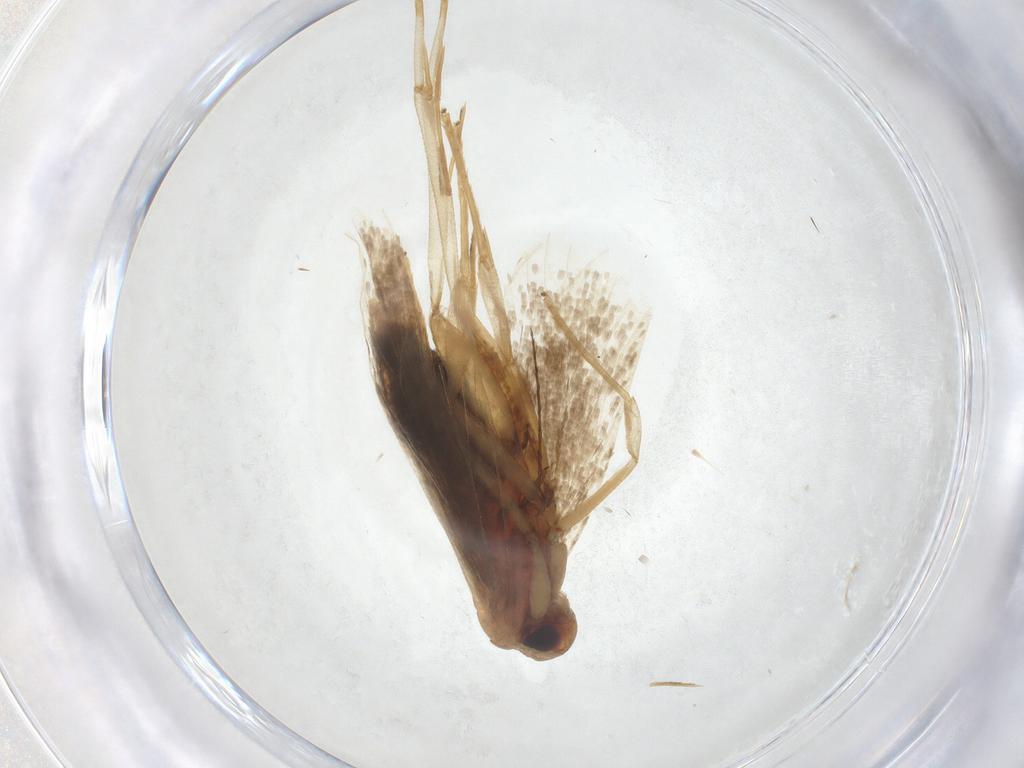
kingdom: Animalia
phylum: Arthropoda
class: Insecta
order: Lepidoptera
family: Lecithoceridae
